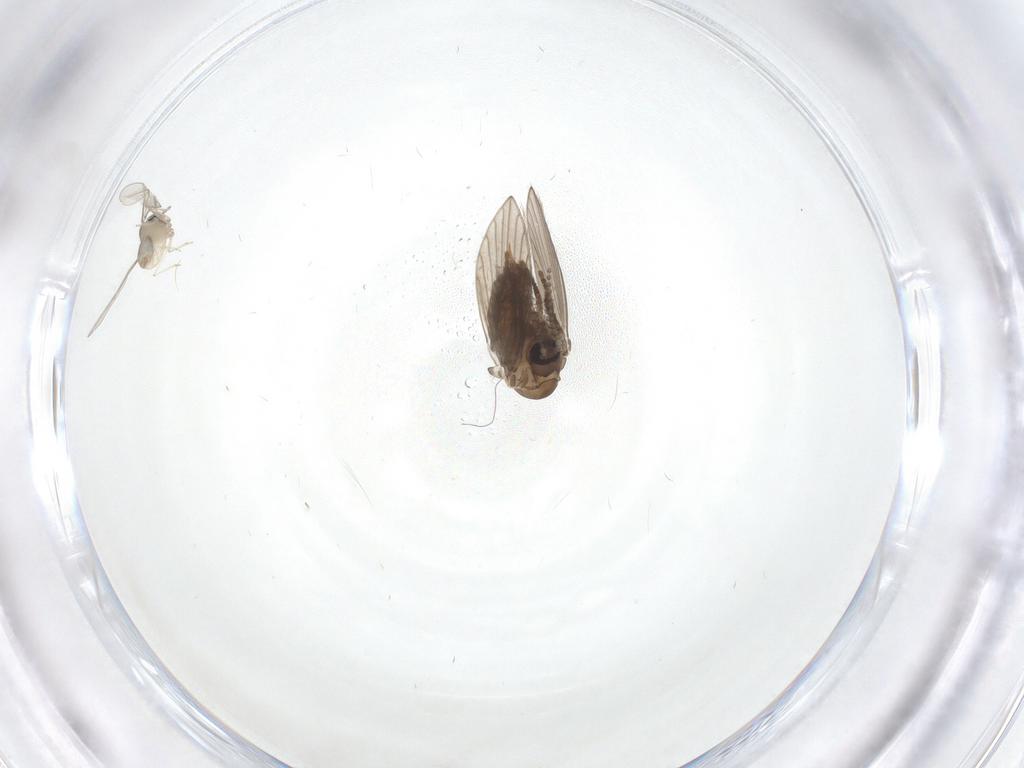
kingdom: Animalia
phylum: Arthropoda
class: Insecta
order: Diptera
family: Cecidomyiidae
